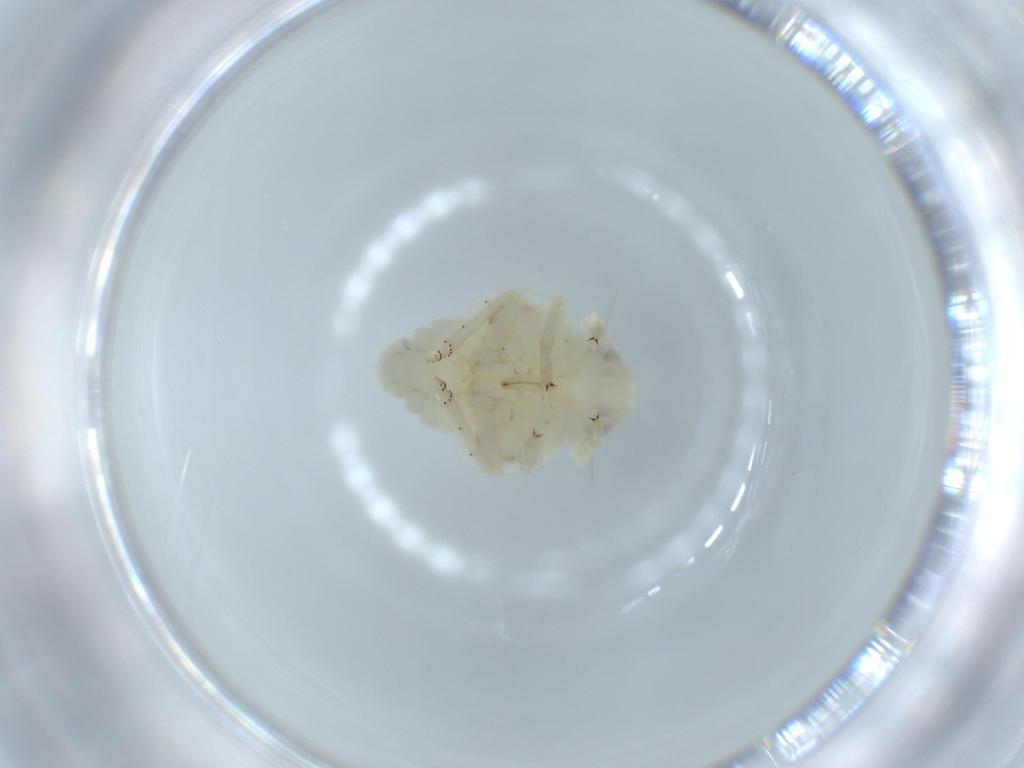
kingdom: Animalia
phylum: Arthropoda
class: Insecta
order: Hemiptera
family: Nogodinidae
